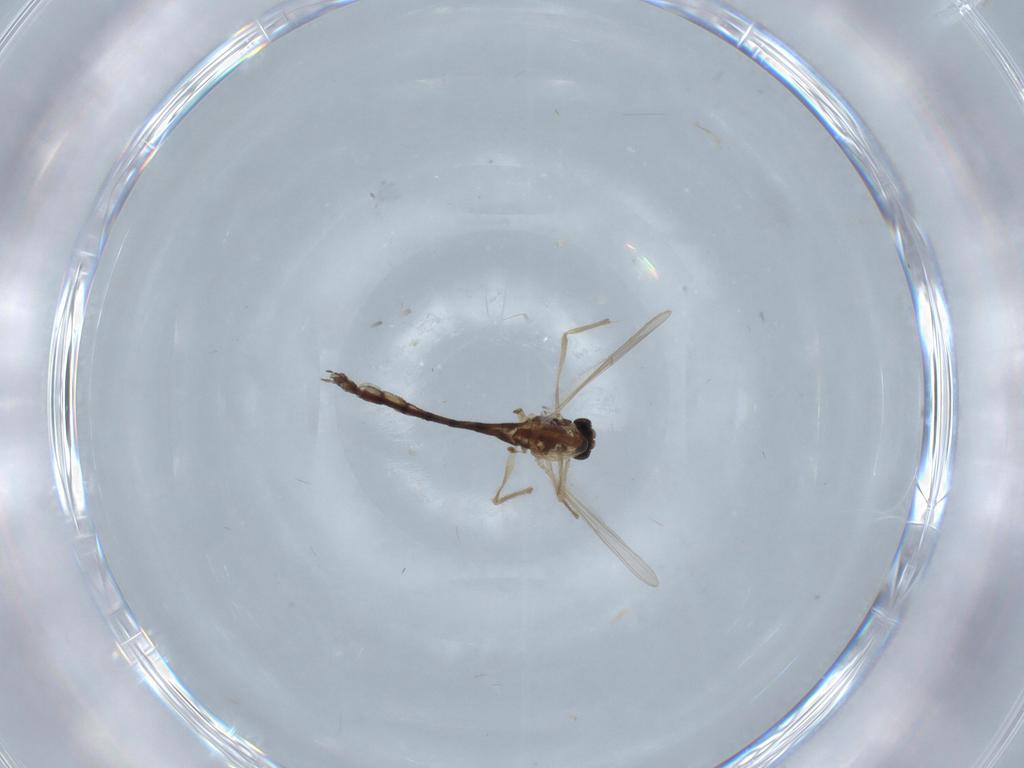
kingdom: Animalia
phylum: Arthropoda
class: Insecta
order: Diptera
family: Chironomidae
